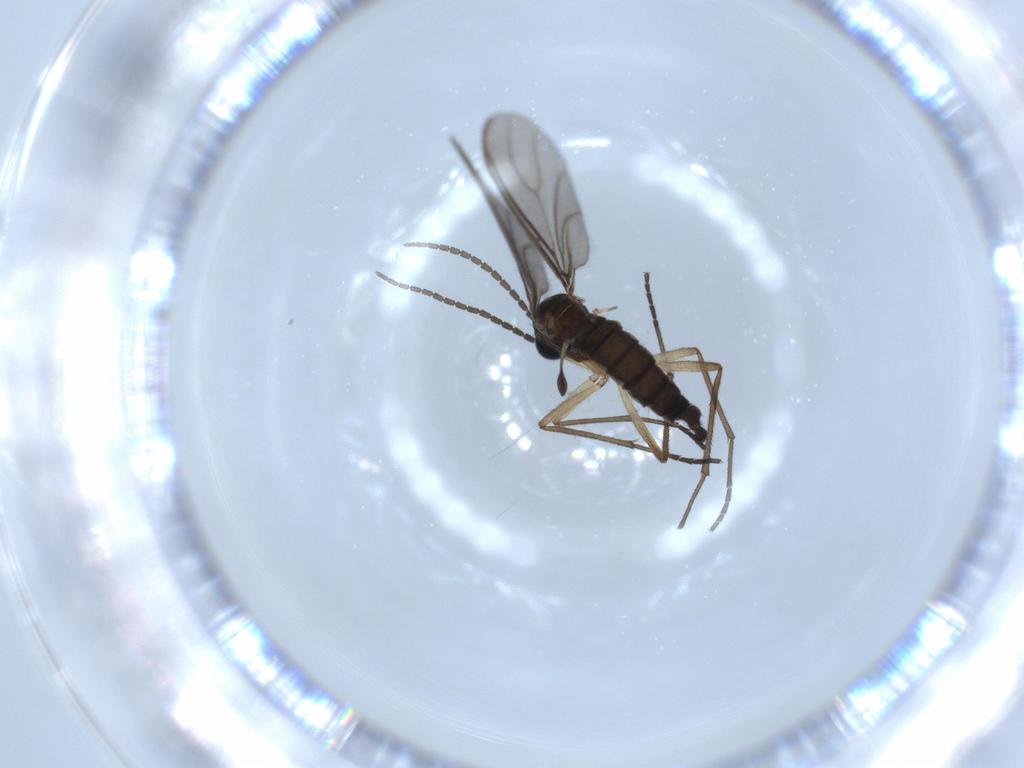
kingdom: Animalia
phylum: Arthropoda
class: Insecta
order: Diptera
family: Sciaridae
